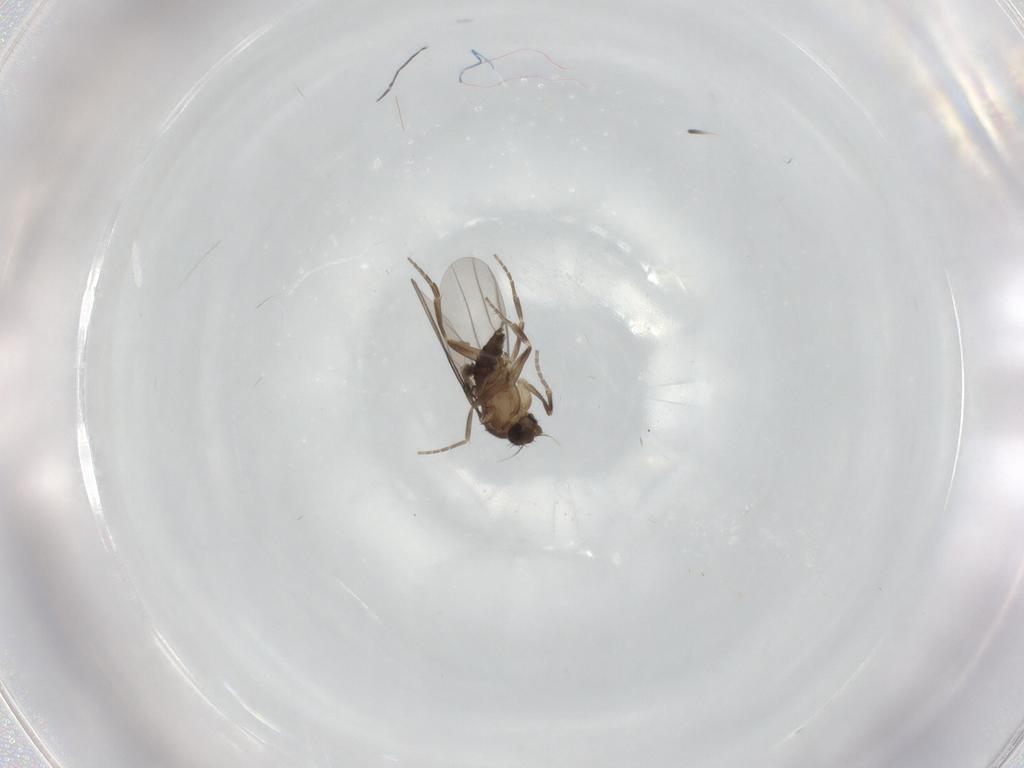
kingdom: Animalia
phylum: Arthropoda
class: Insecta
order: Diptera
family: Phoridae
